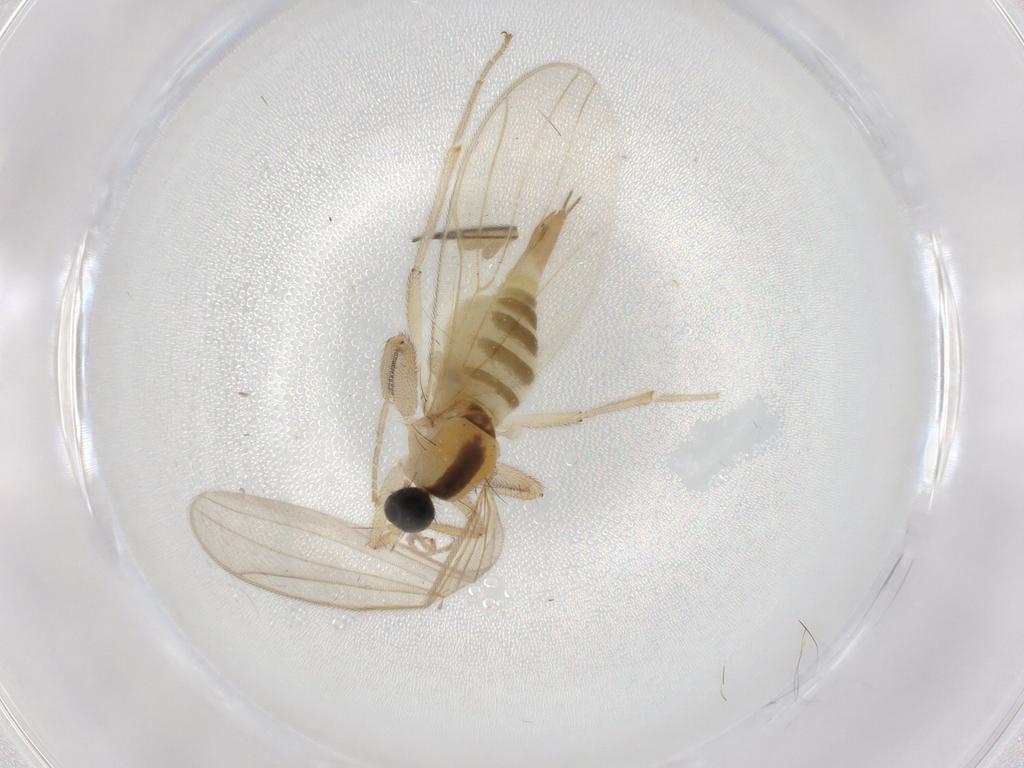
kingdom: Animalia
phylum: Arthropoda
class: Insecta
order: Diptera
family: Hybotidae
